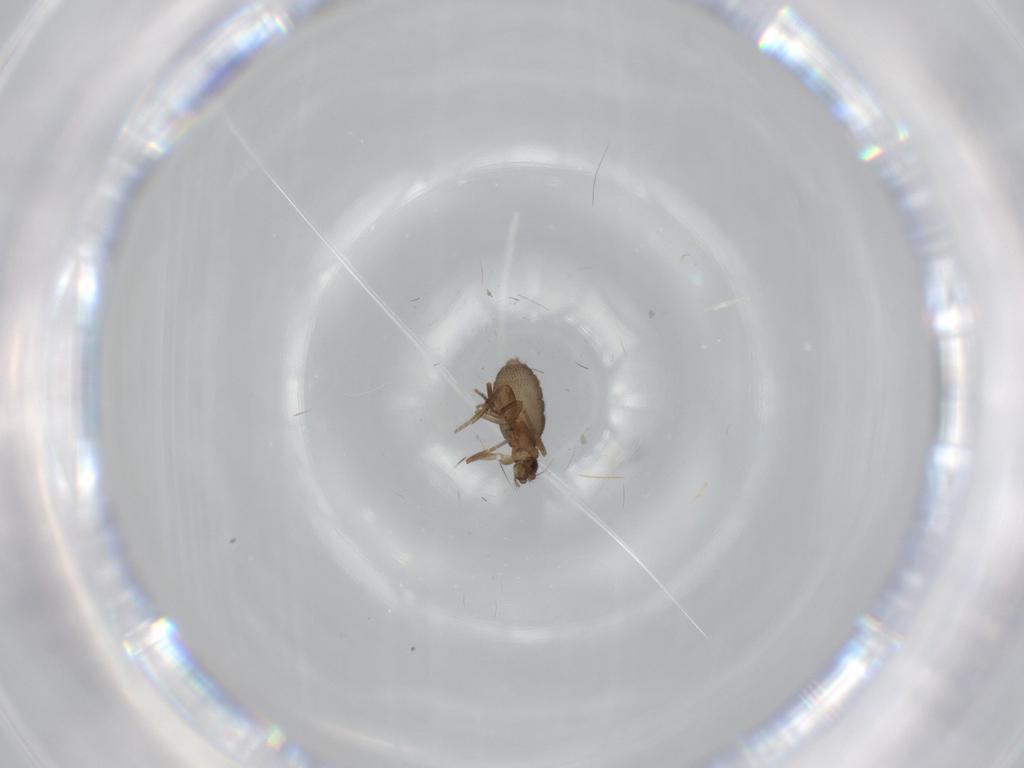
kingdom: Animalia
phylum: Arthropoda
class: Insecta
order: Diptera
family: Phoridae
